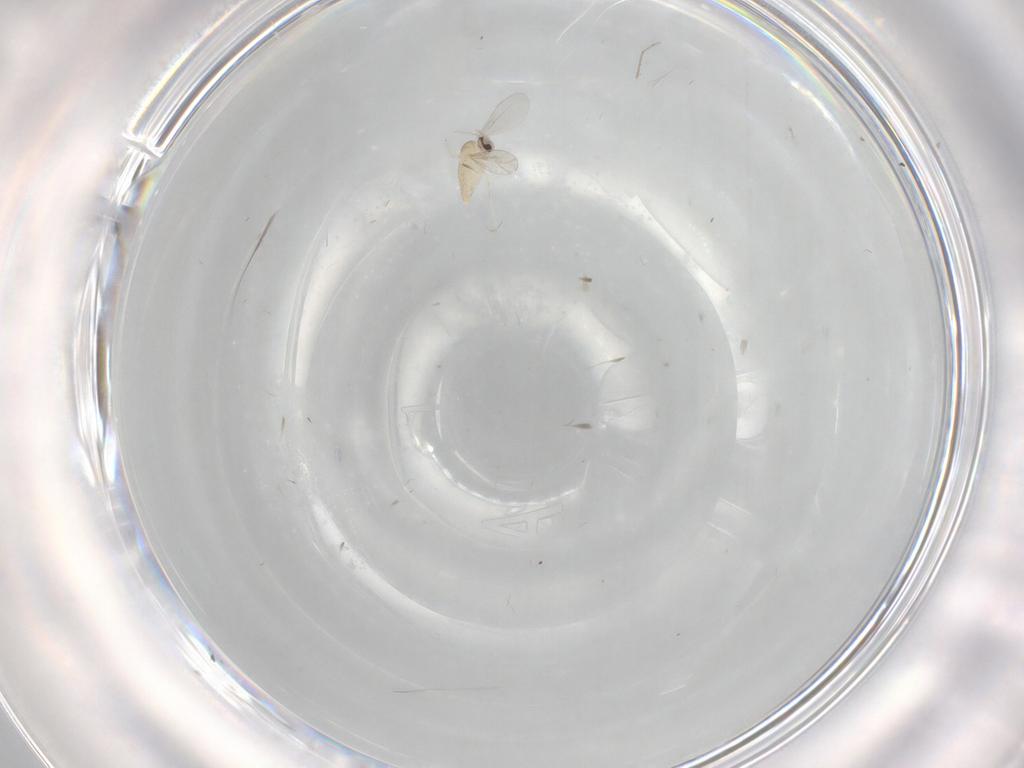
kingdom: Animalia
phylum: Arthropoda
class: Insecta
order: Diptera
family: Cecidomyiidae
